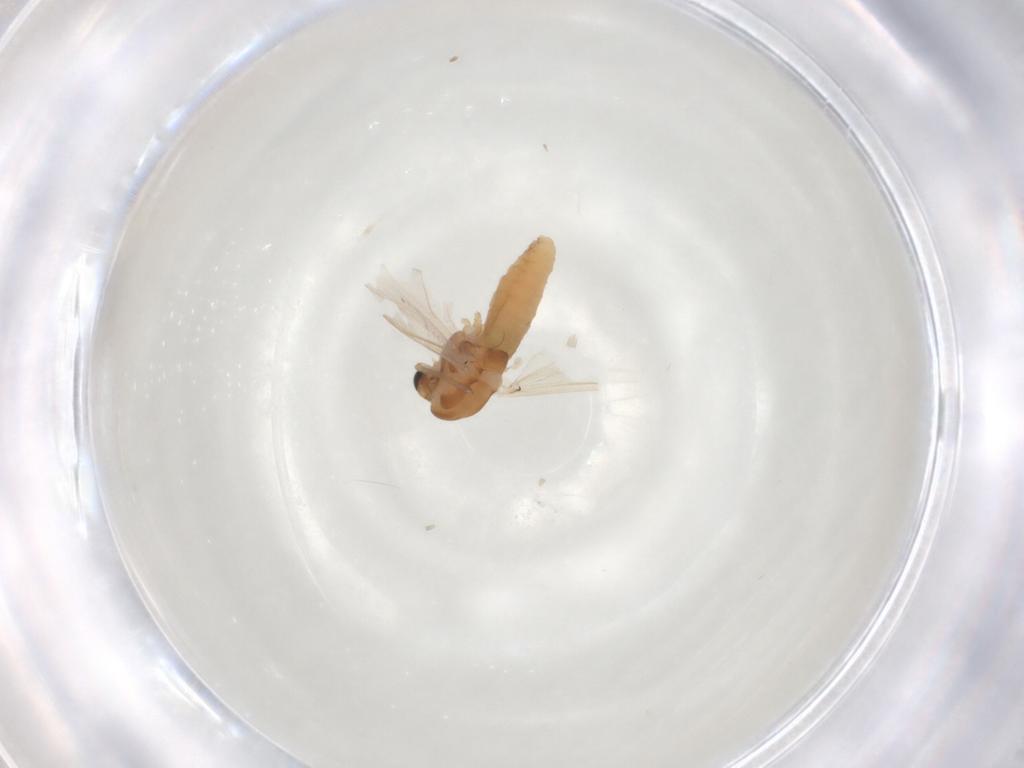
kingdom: Animalia
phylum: Arthropoda
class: Insecta
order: Diptera
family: Chironomidae
